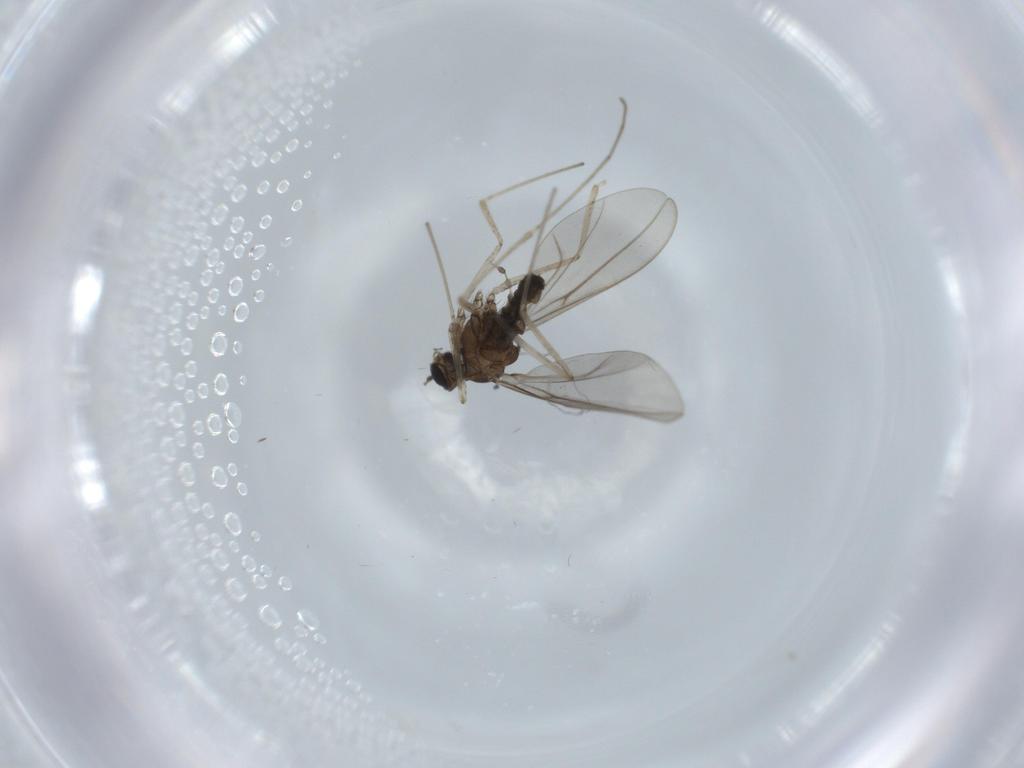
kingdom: Animalia
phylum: Arthropoda
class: Insecta
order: Diptera
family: Cecidomyiidae
